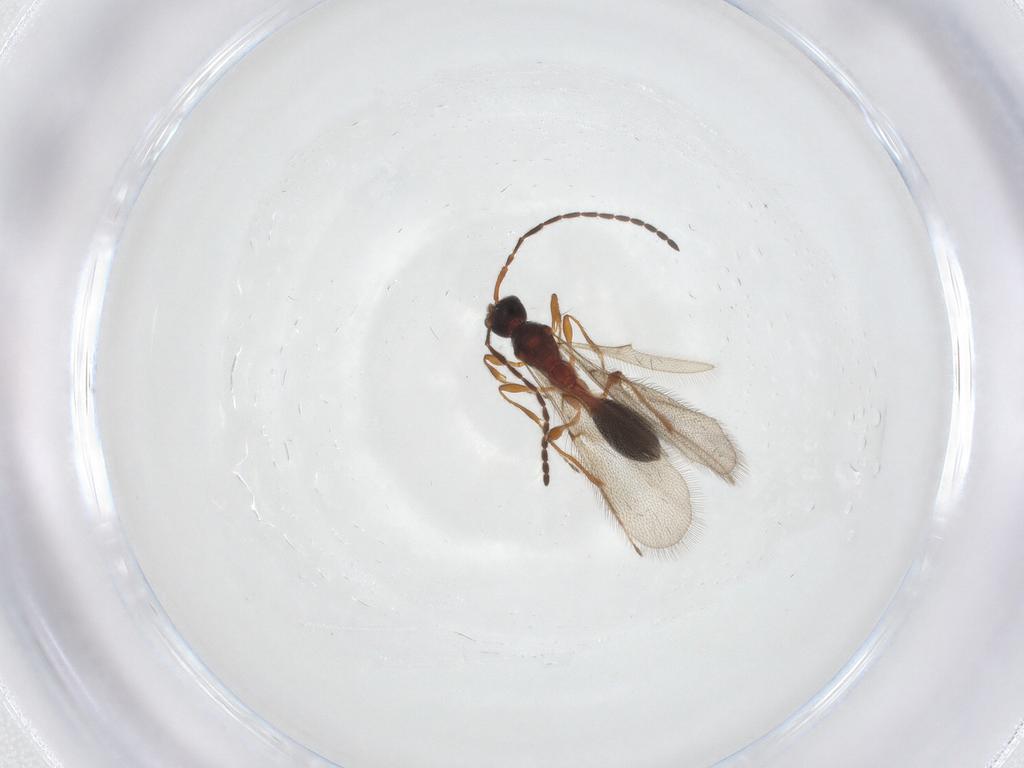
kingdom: Animalia
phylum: Arthropoda
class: Insecta
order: Hymenoptera
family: Diapriidae
